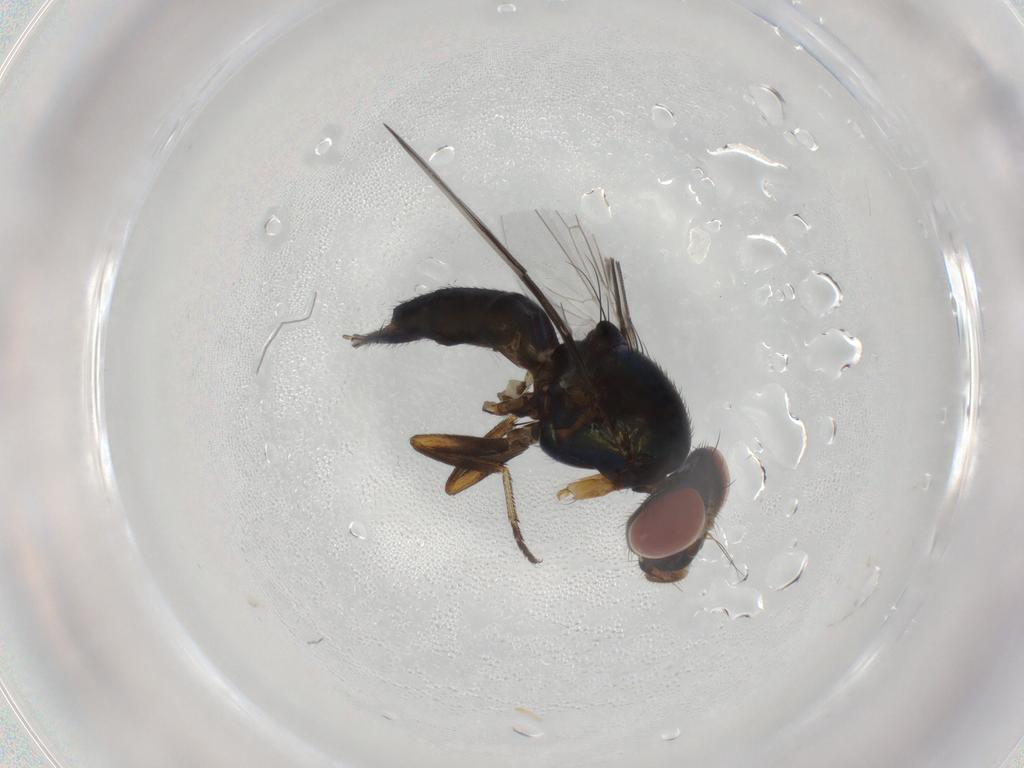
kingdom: Animalia
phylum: Arthropoda
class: Insecta
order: Diptera
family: Ulidiidae
